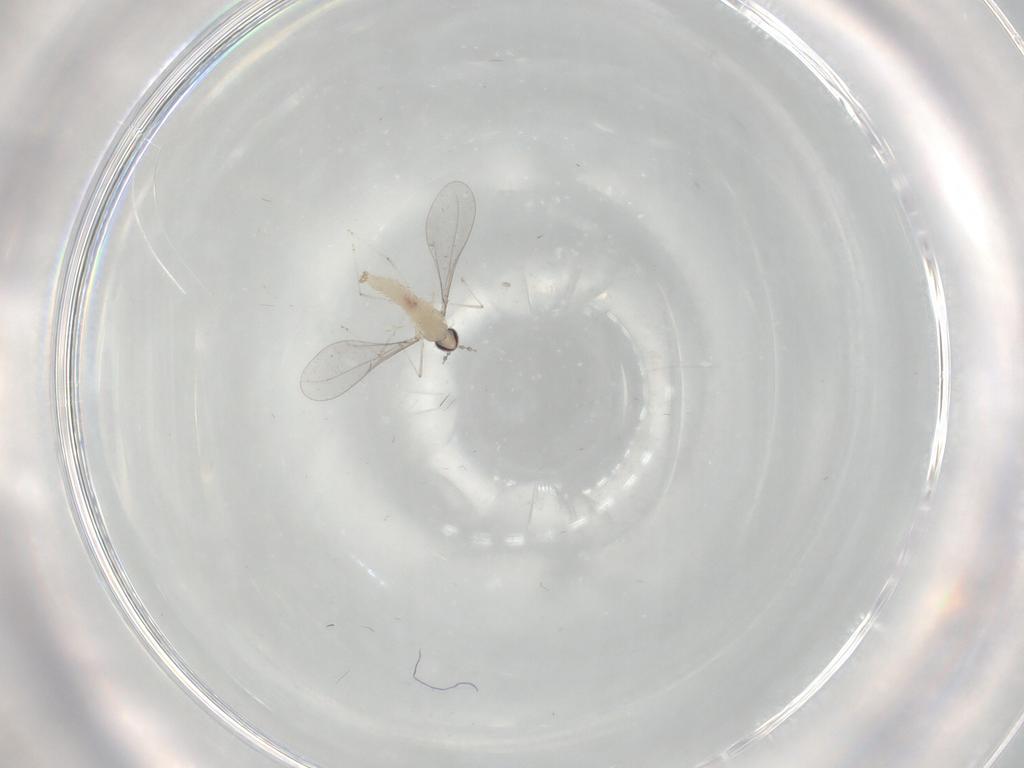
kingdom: Animalia
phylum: Arthropoda
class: Insecta
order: Diptera
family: Cecidomyiidae
